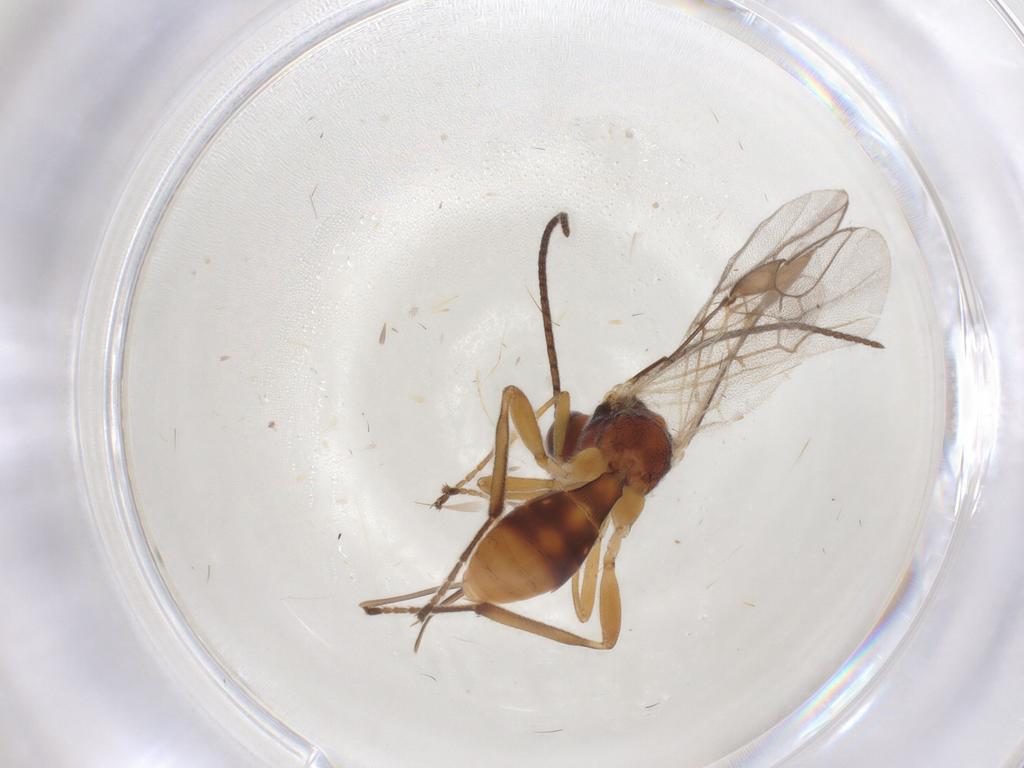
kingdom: Animalia
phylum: Arthropoda
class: Insecta
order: Hymenoptera
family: Braconidae
